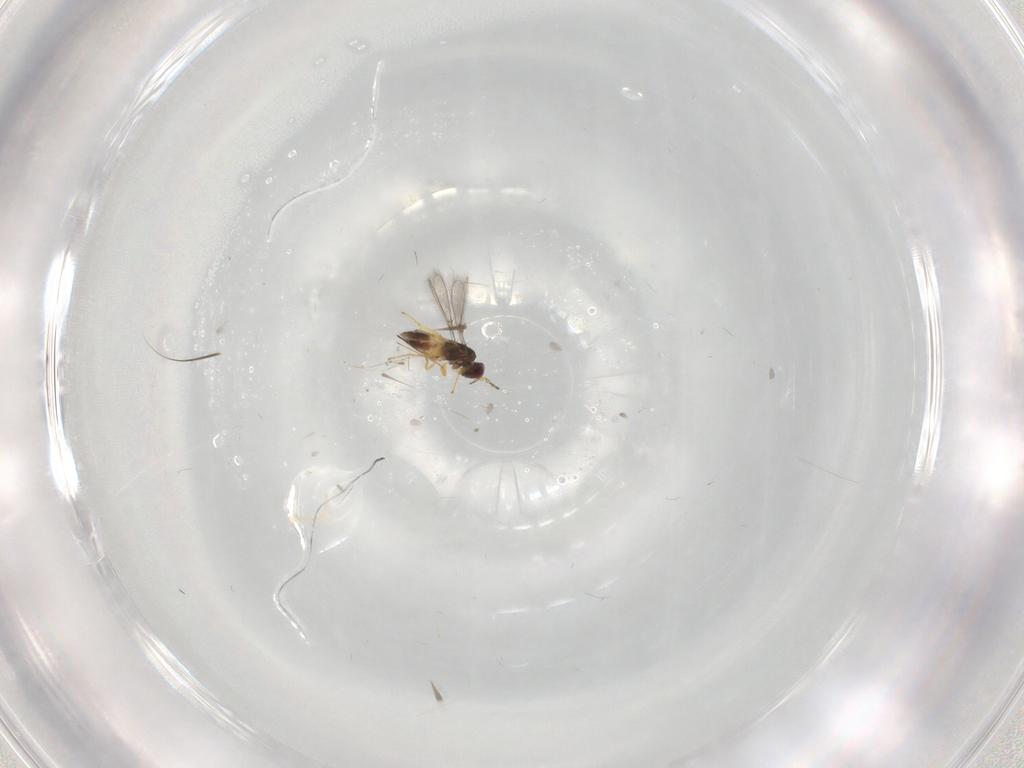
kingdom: Animalia
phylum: Arthropoda
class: Insecta
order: Hymenoptera
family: Mymaridae
